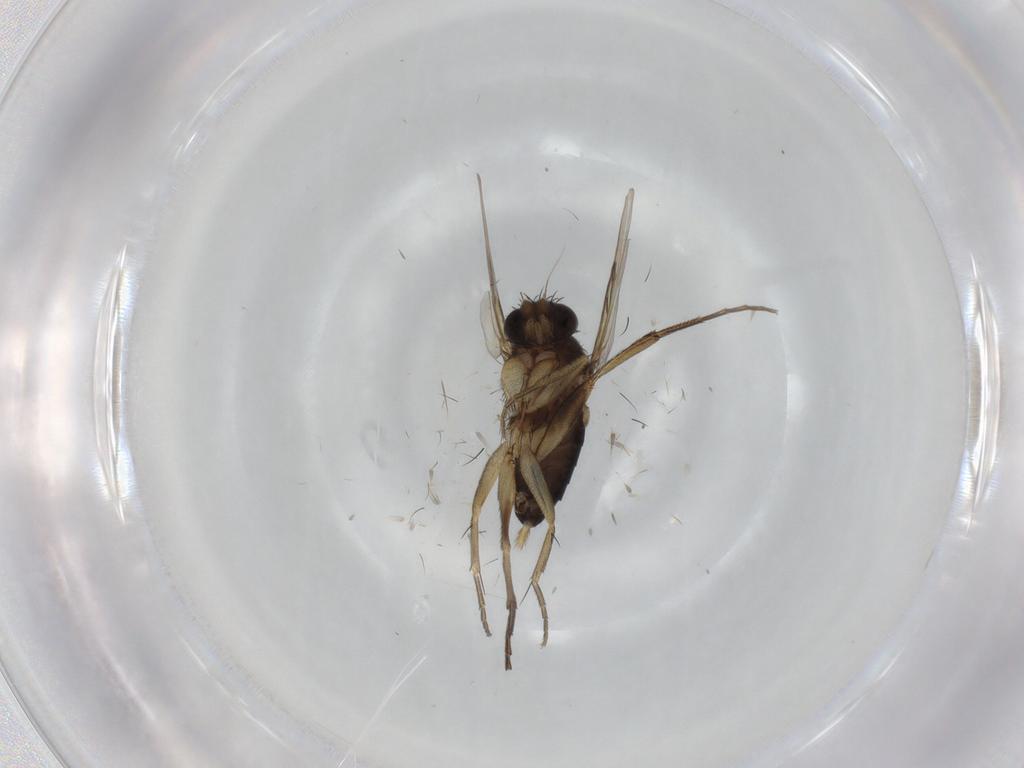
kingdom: Animalia
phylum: Arthropoda
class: Insecta
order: Diptera
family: Phoridae
